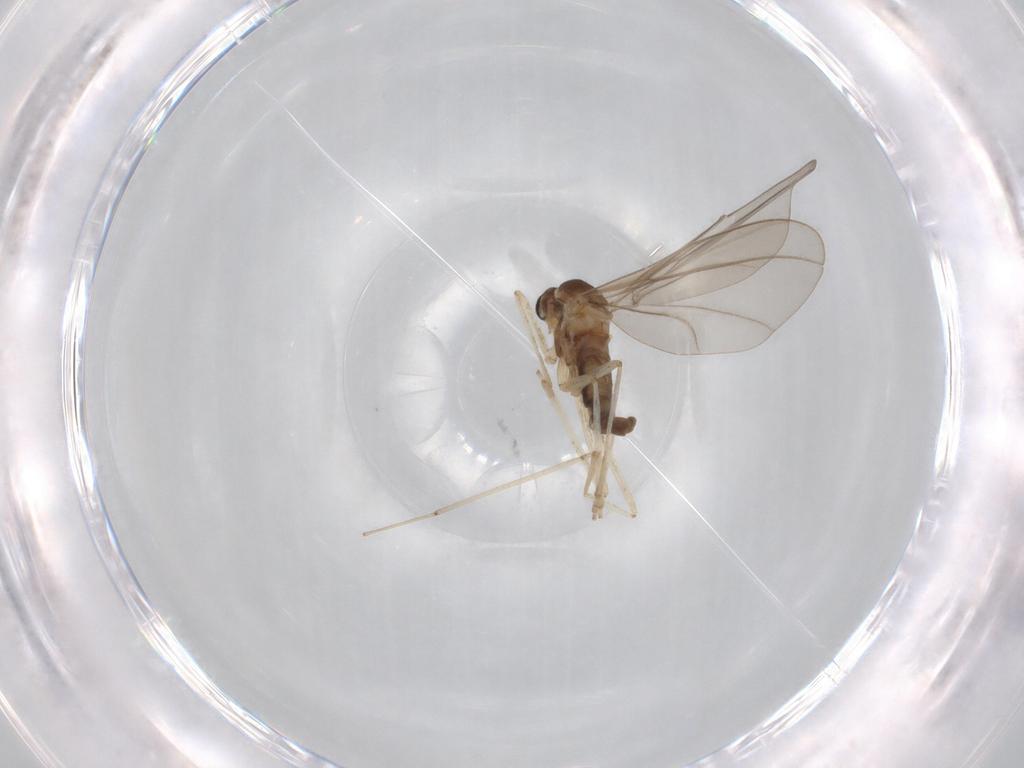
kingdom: Animalia
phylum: Arthropoda
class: Insecta
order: Diptera
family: Cecidomyiidae
